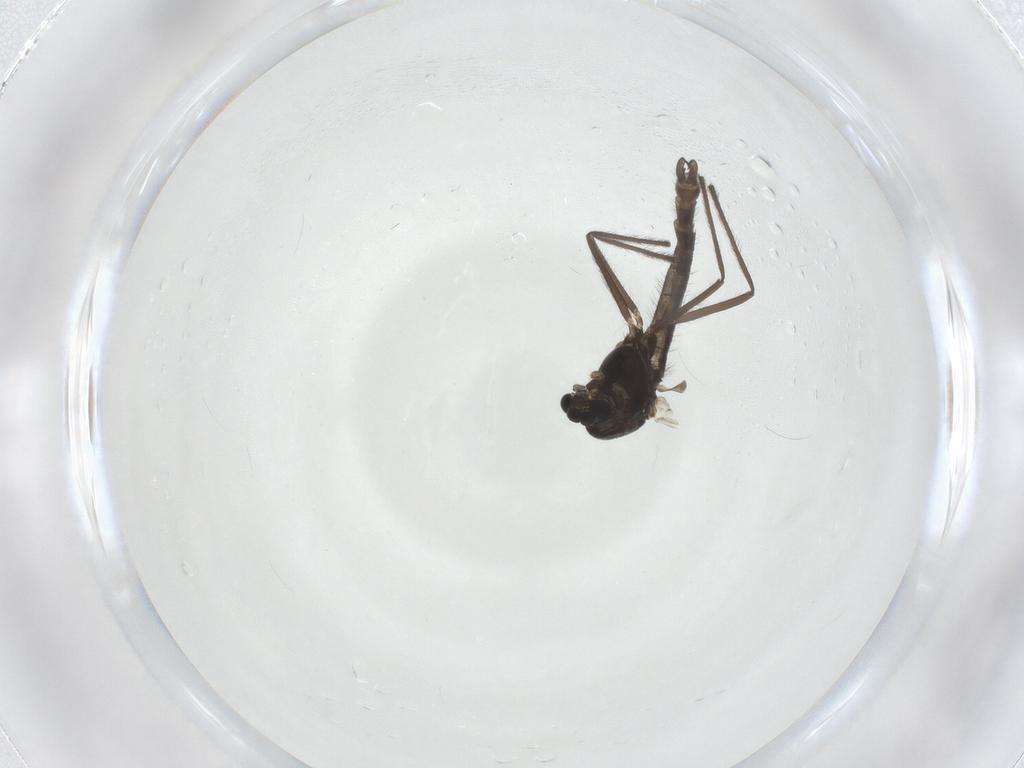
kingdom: Animalia
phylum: Arthropoda
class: Insecta
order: Diptera
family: Chironomidae
